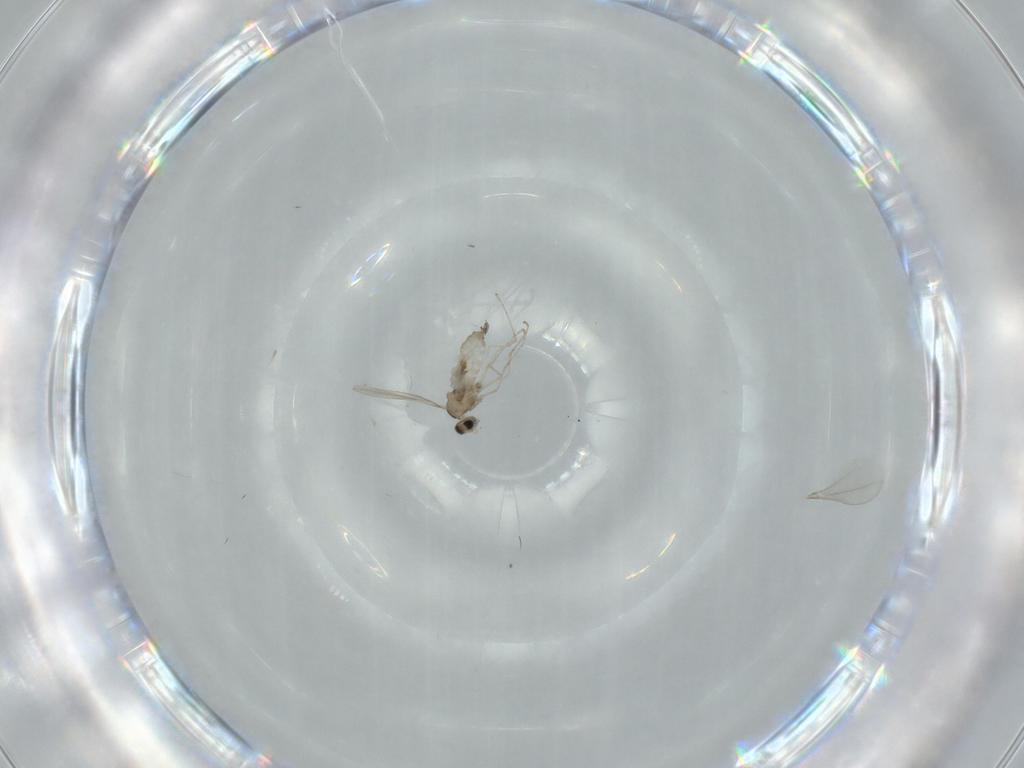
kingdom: Animalia
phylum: Arthropoda
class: Insecta
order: Diptera
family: Cecidomyiidae
